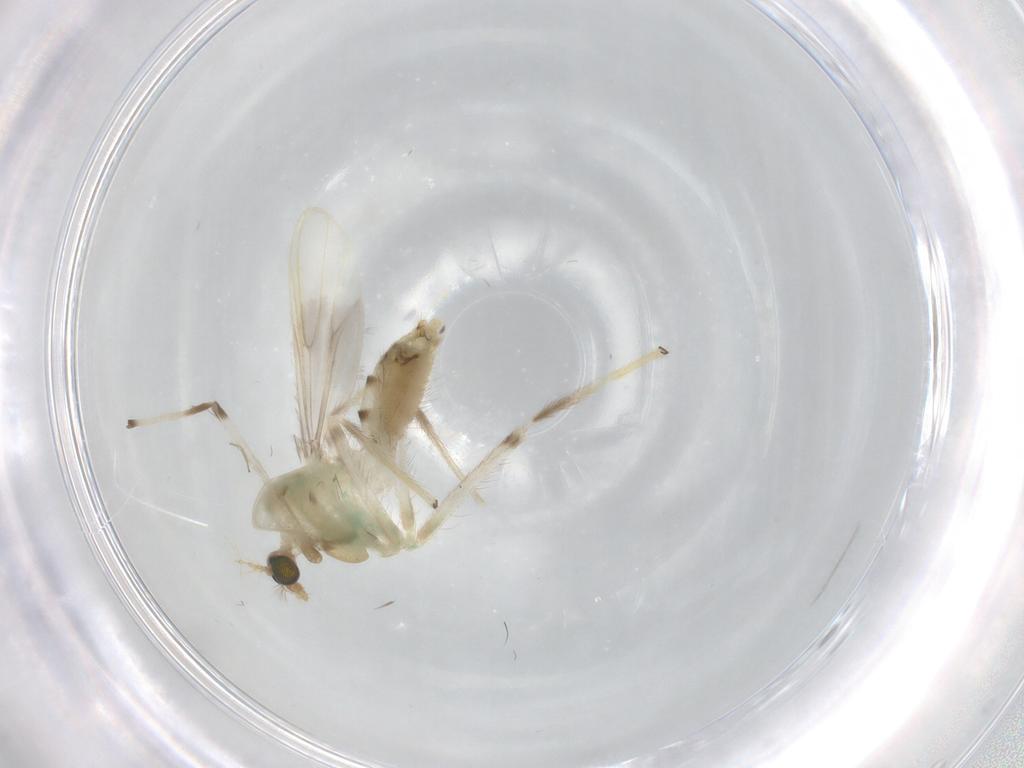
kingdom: Animalia
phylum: Arthropoda
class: Insecta
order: Diptera
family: Chironomidae
